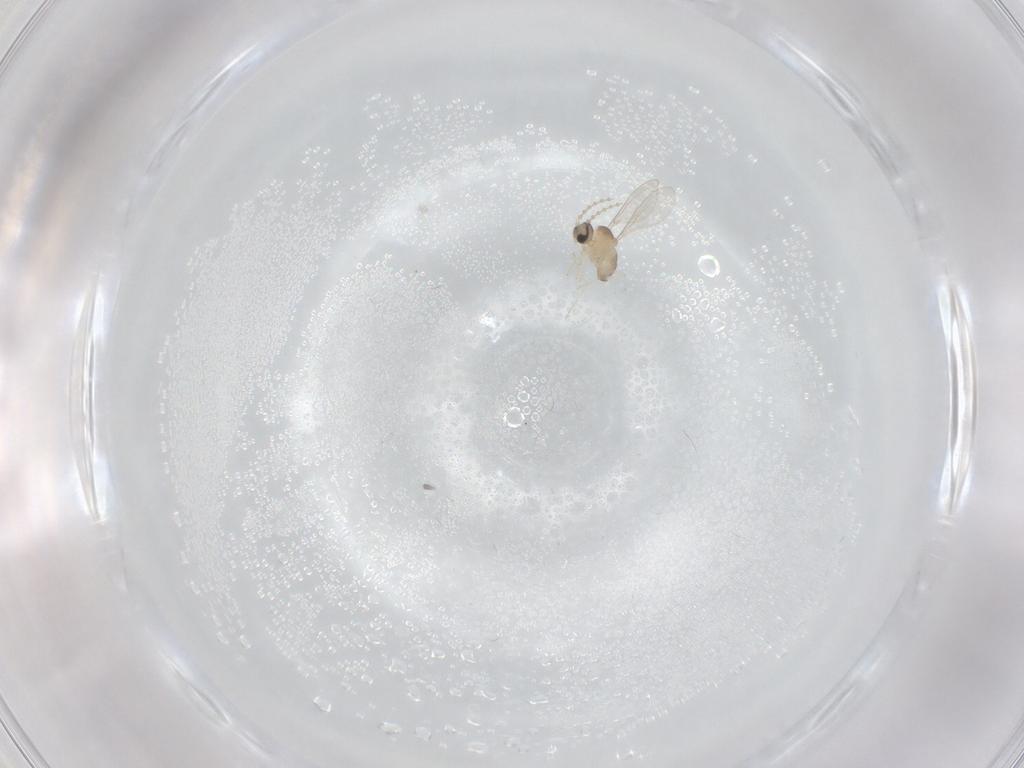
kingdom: Animalia
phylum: Arthropoda
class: Insecta
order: Diptera
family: Cecidomyiidae
